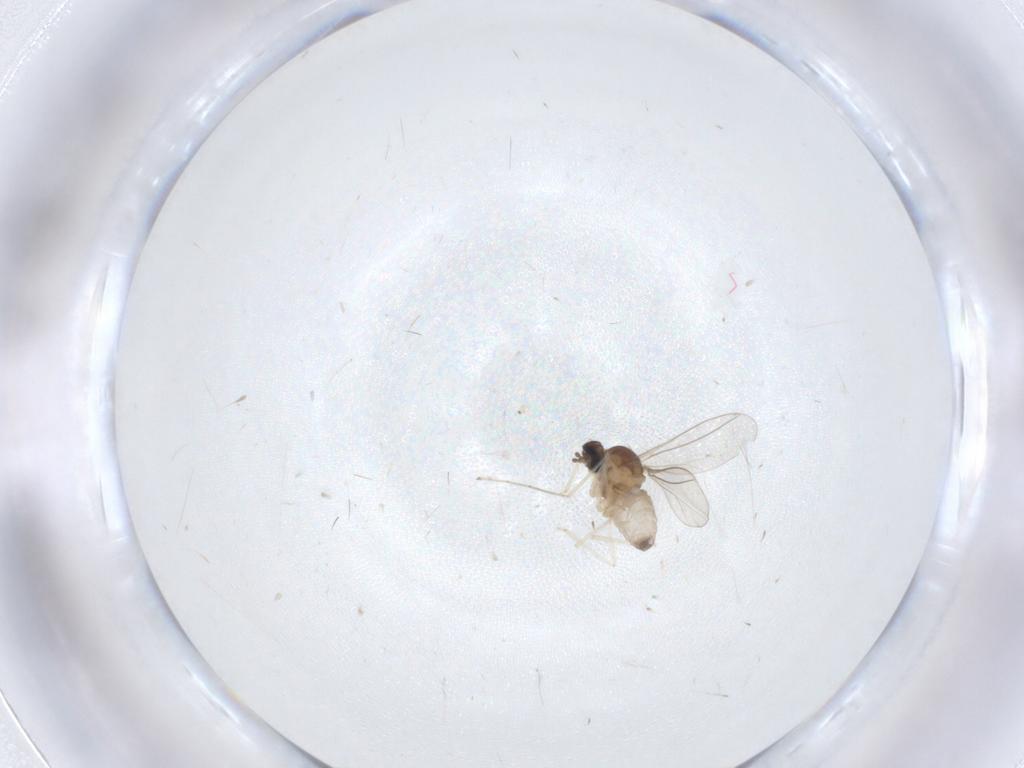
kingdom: Animalia
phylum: Arthropoda
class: Insecta
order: Diptera
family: Cecidomyiidae
